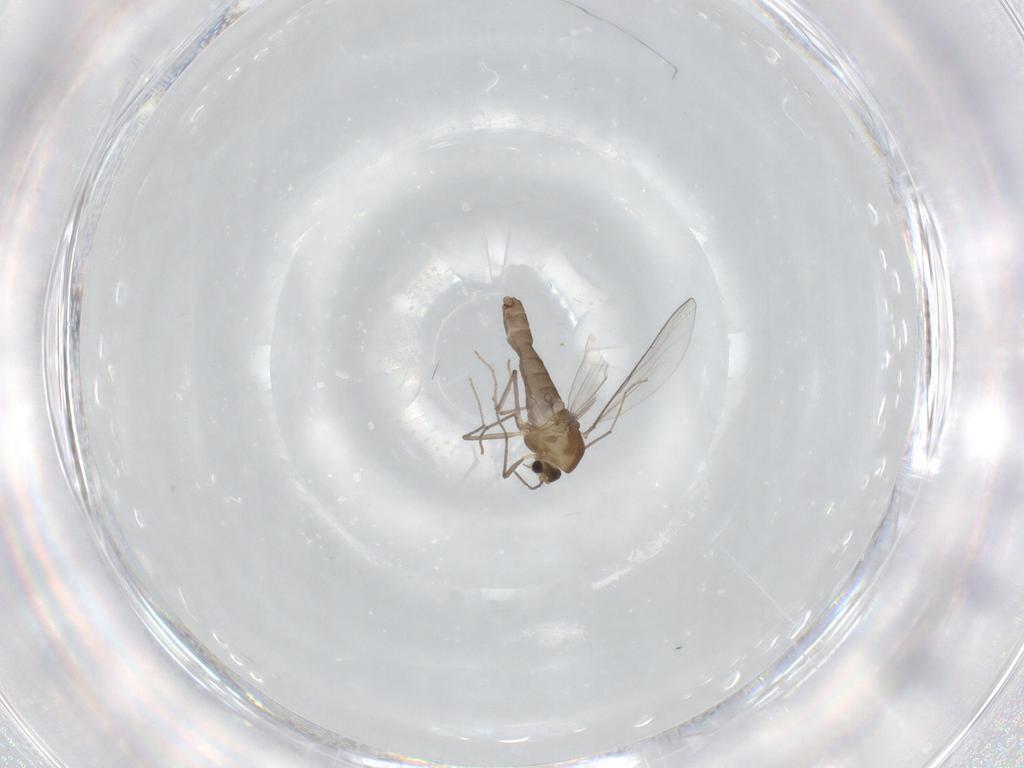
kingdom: Animalia
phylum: Arthropoda
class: Insecta
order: Diptera
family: Chironomidae
